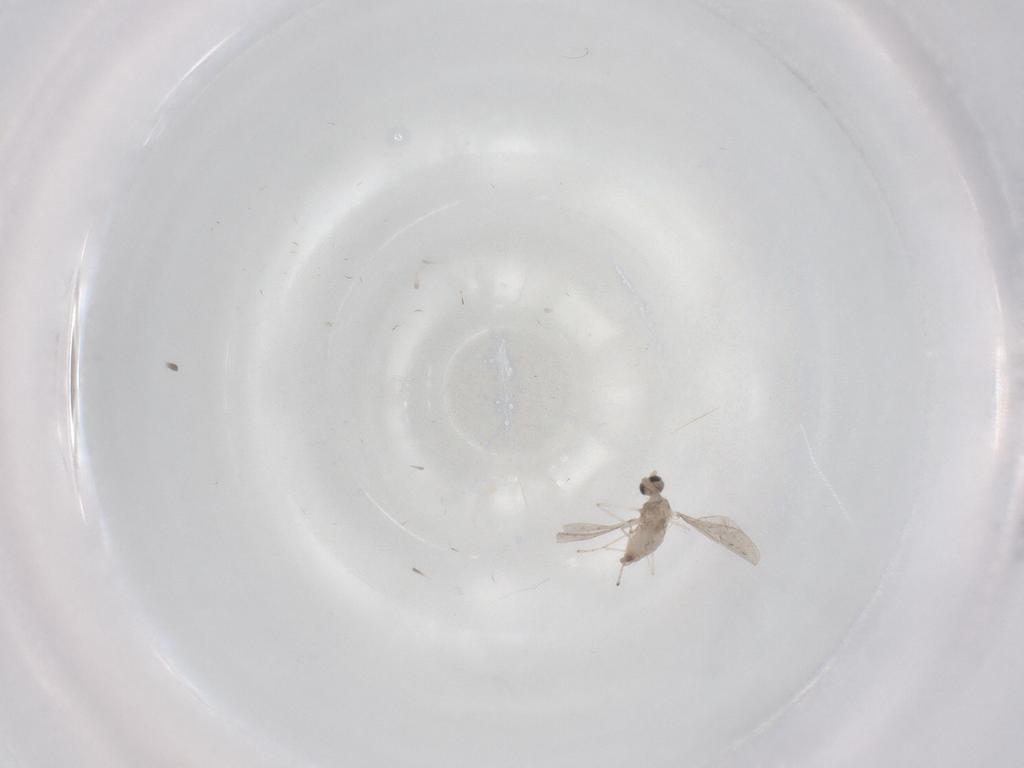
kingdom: Animalia
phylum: Arthropoda
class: Insecta
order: Diptera
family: Cecidomyiidae
